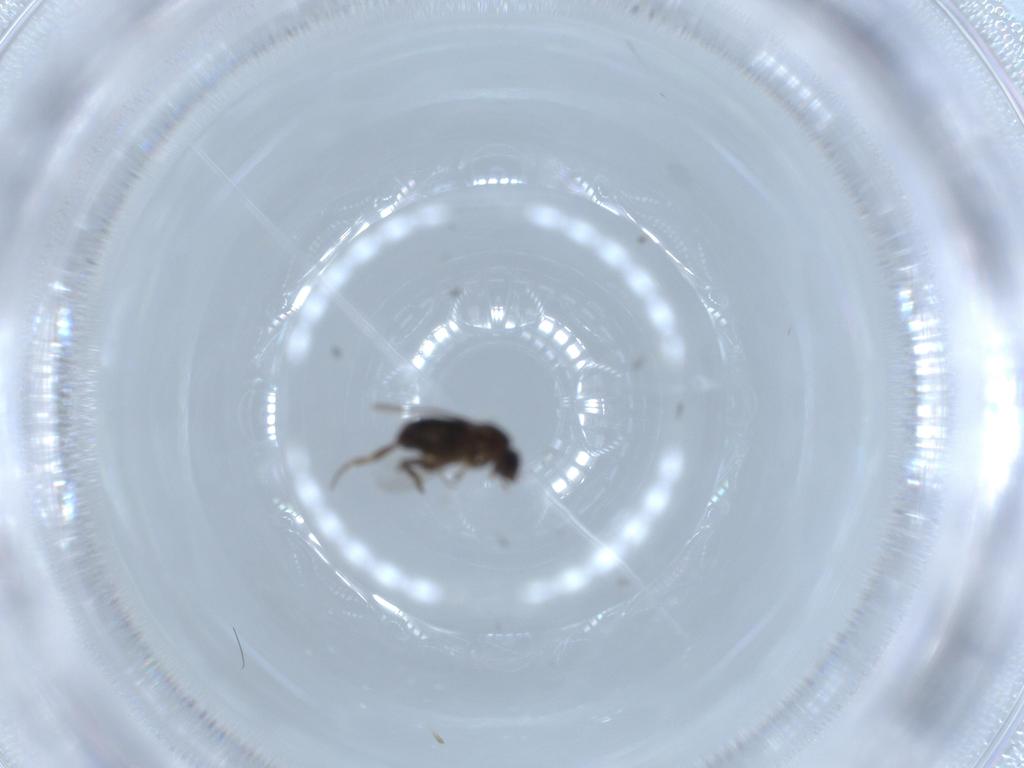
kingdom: Animalia
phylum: Arthropoda
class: Insecta
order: Diptera
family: Phoridae
